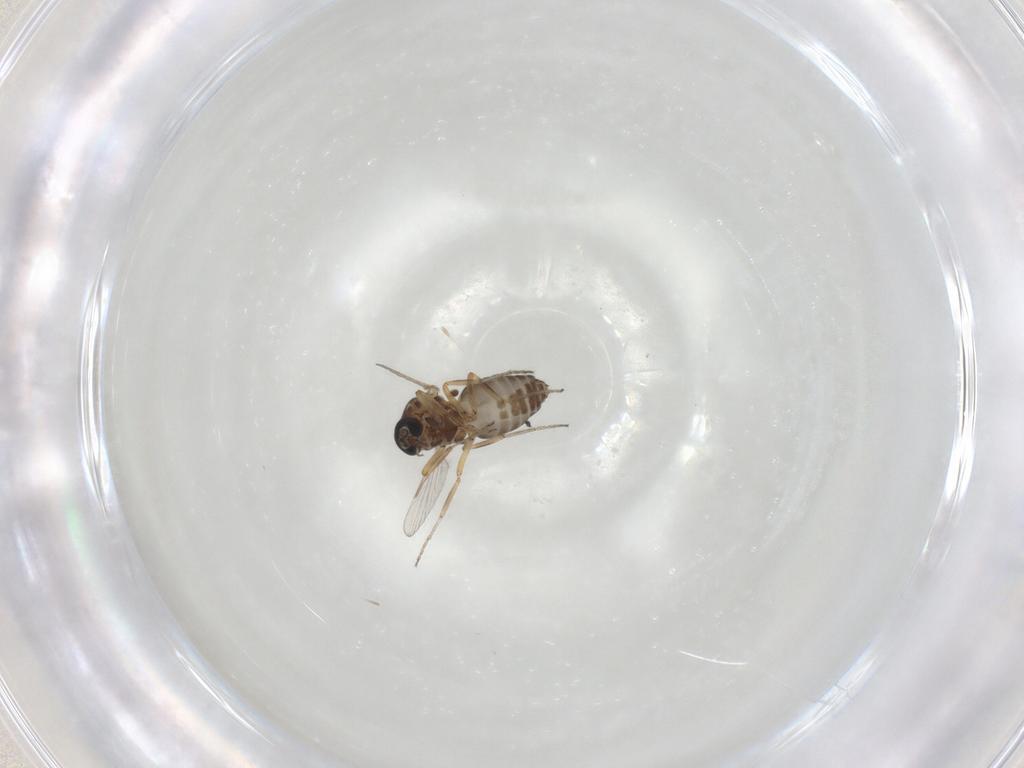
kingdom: Animalia
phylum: Arthropoda
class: Insecta
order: Diptera
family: Ceratopogonidae
